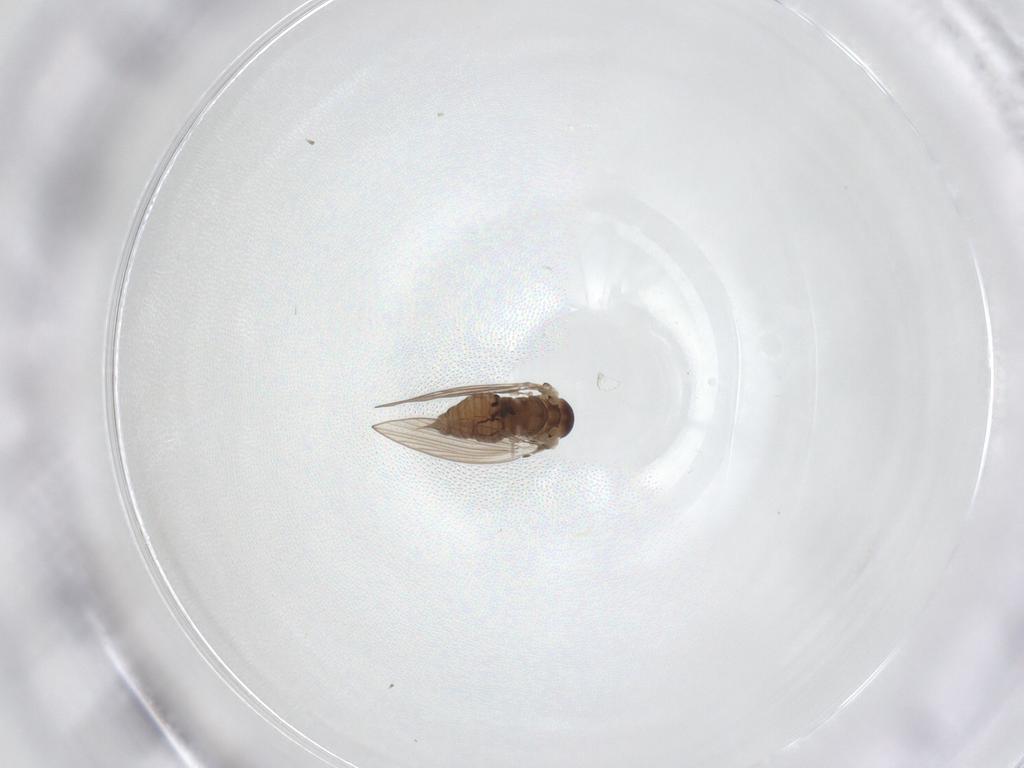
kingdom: Animalia
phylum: Arthropoda
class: Insecta
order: Diptera
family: Psychodidae
